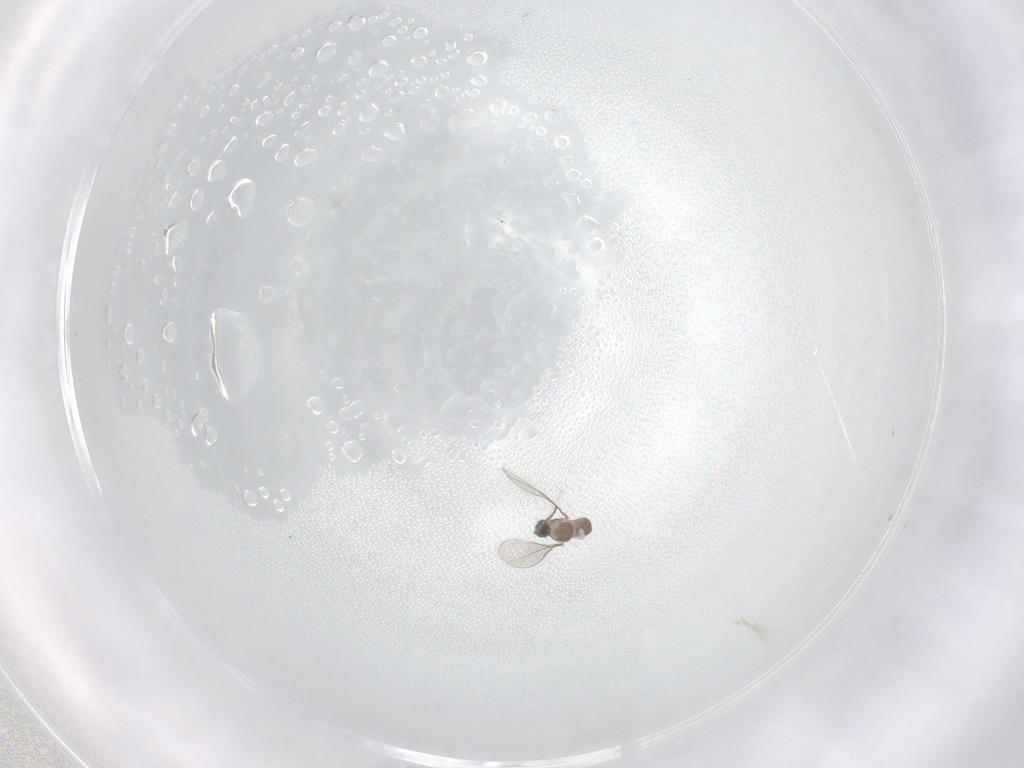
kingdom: Animalia
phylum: Arthropoda
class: Insecta
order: Diptera
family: Cecidomyiidae
